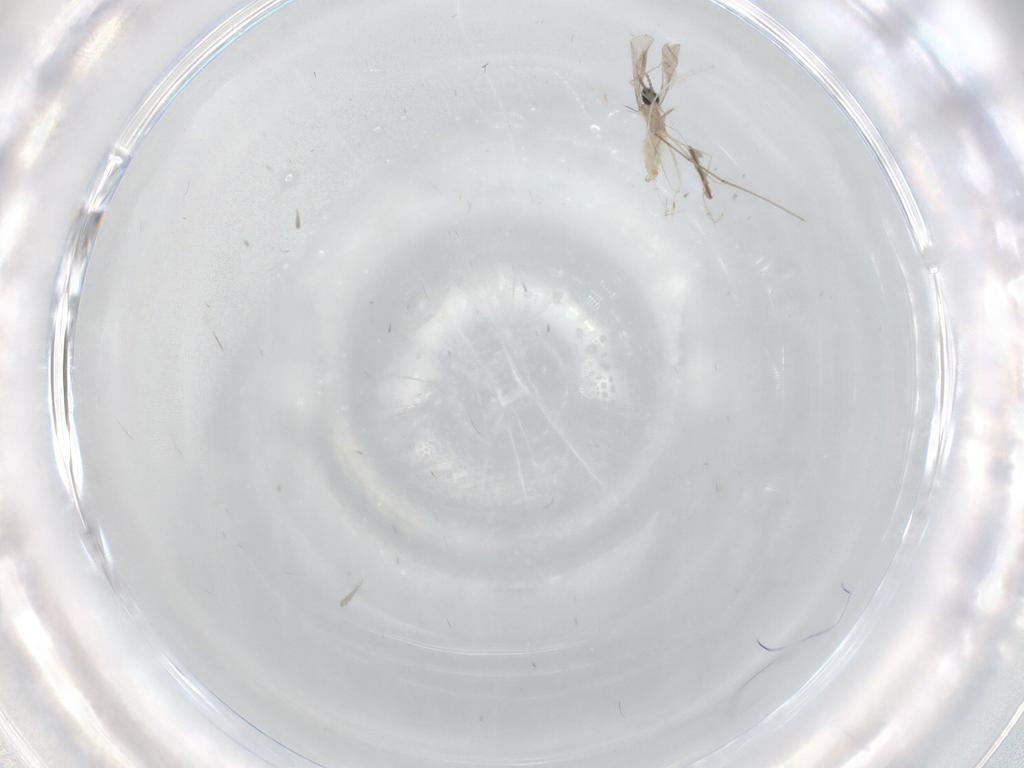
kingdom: Animalia
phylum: Arthropoda
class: Insecta
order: Diptera
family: Cecidomyiidae
